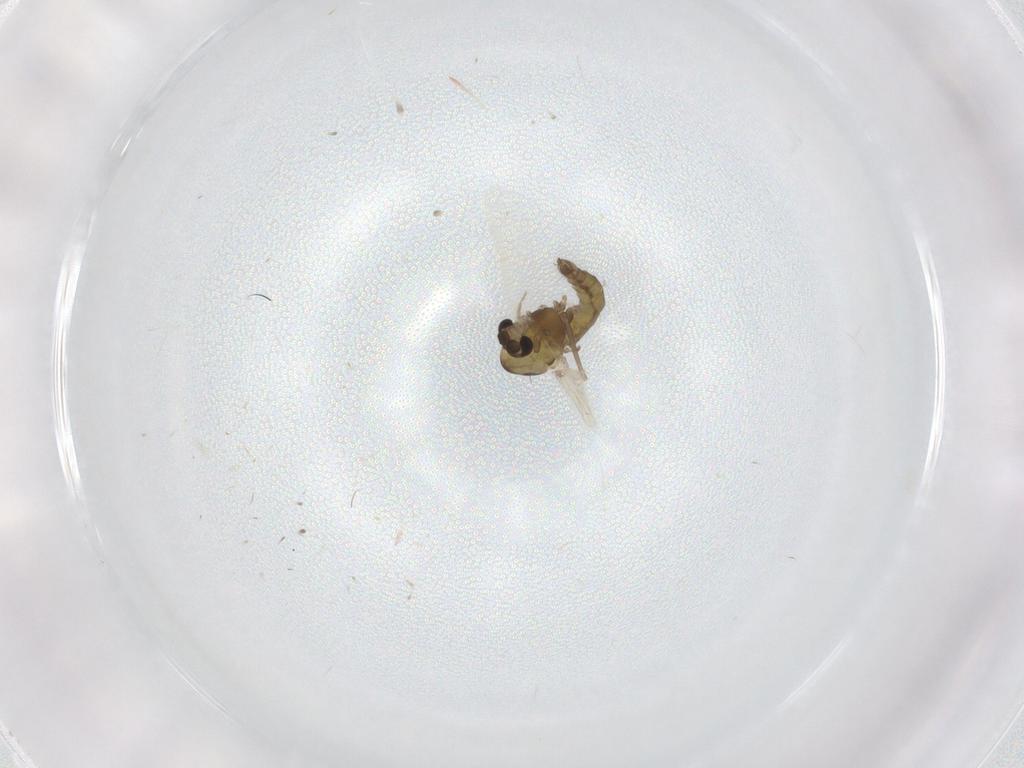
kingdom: Animalia
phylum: Arthropoda
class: Insecta
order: Diptera
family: Chironomidae
